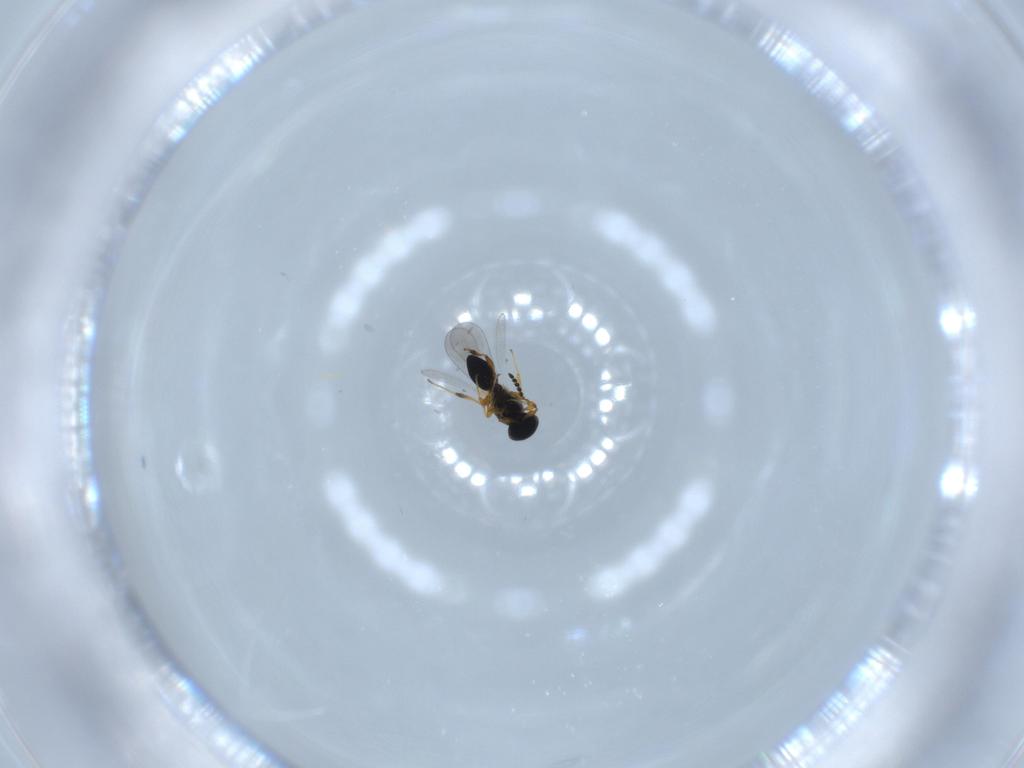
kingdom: Animalia
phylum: Arthropoda
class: Insecta
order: Hymenoptera
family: Platygastridae
